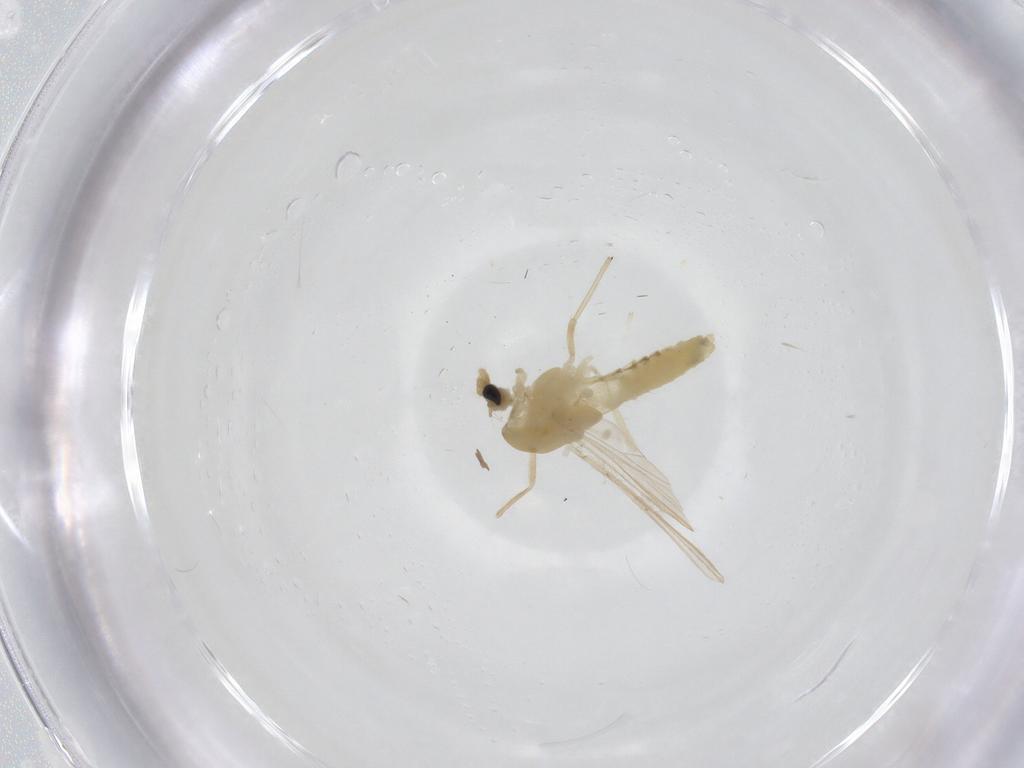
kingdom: Animalia
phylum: Arthropoda
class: Insecta
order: Diptera
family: Chironomidae
